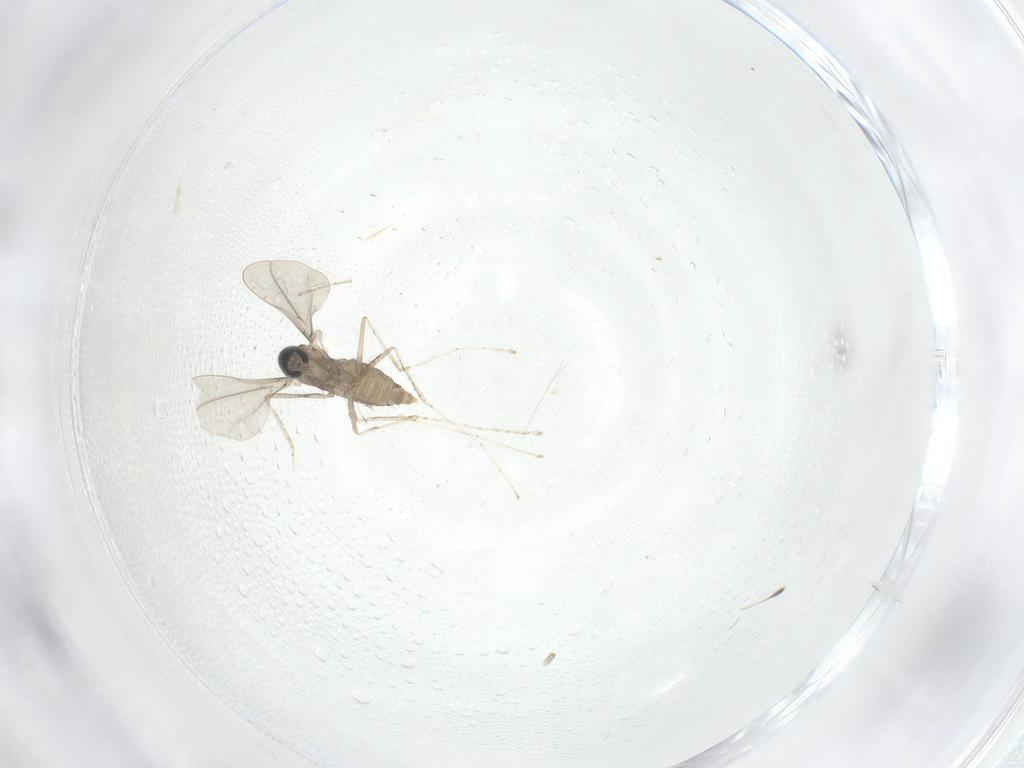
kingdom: Animalia
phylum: Arthropoda
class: Insecta
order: Diptera
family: Cecidomyiidae
